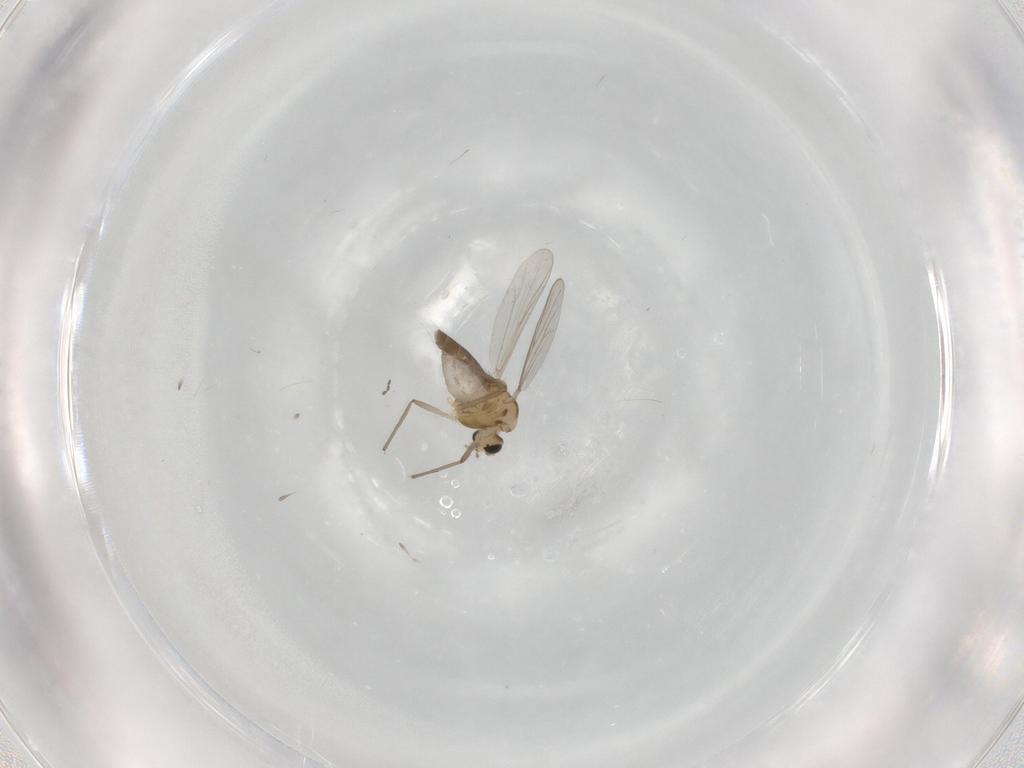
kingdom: Animalia
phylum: Arthropoda
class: Insecta
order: Diptera
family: Chironomidae
